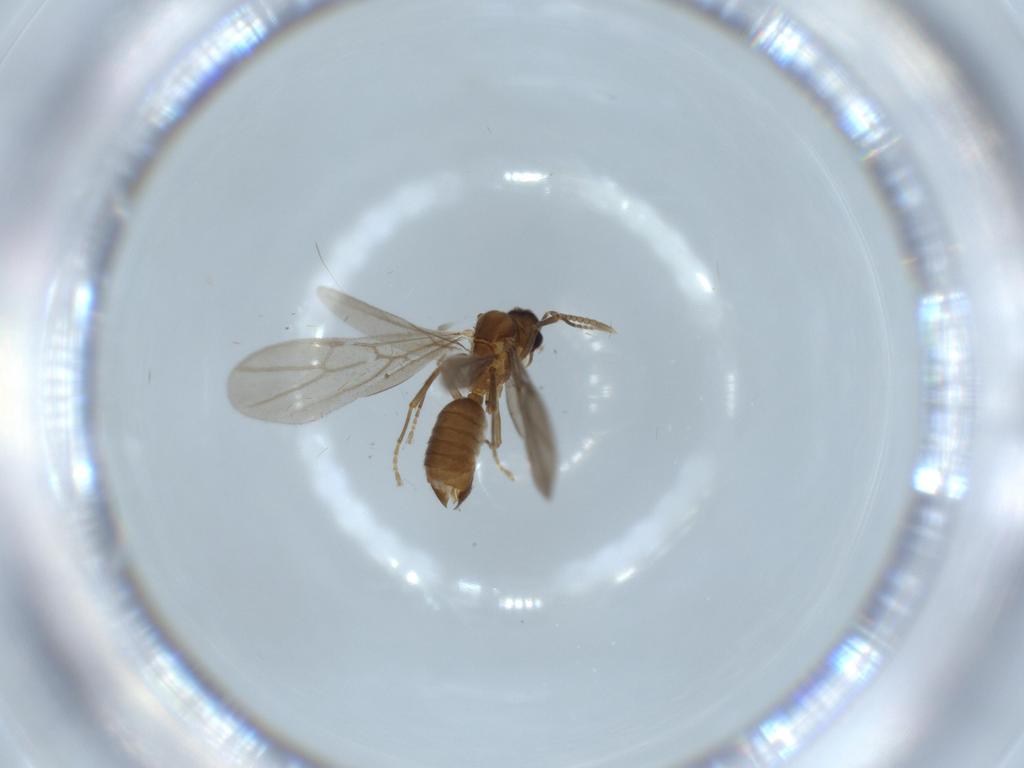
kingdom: Animalia
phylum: Arthropoda
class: Insecta
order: Hymenoptera
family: Formicidae
